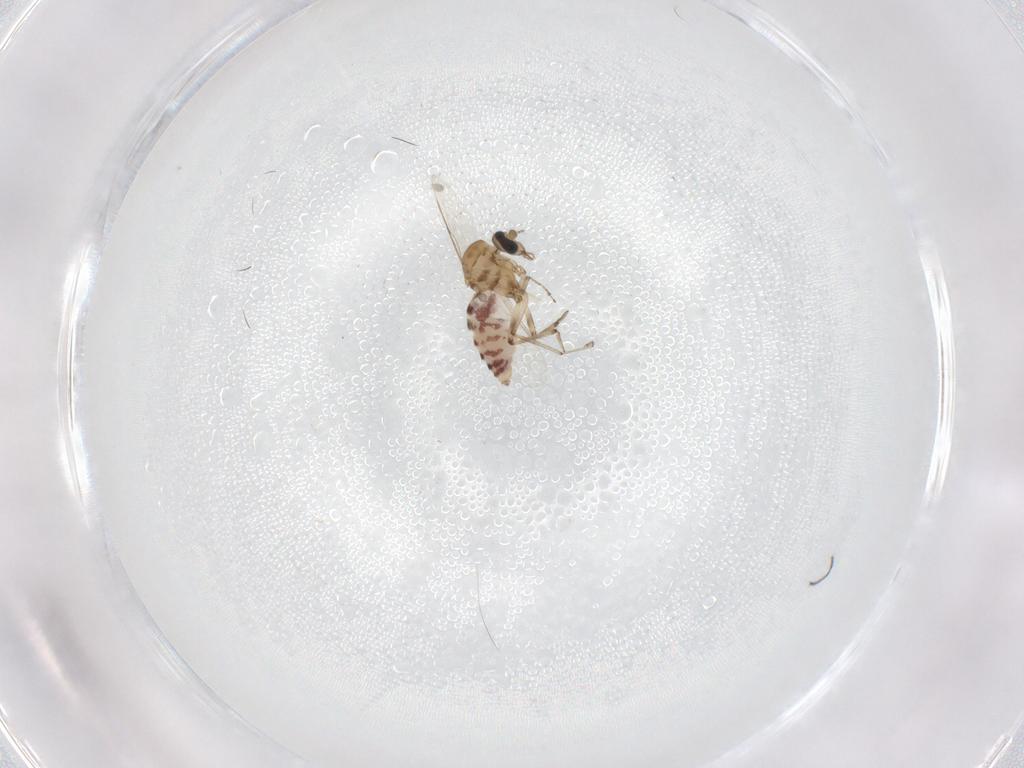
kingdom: Animalia
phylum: Arthropoda
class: Insecta
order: Diptera
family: Ceratopogonidae
